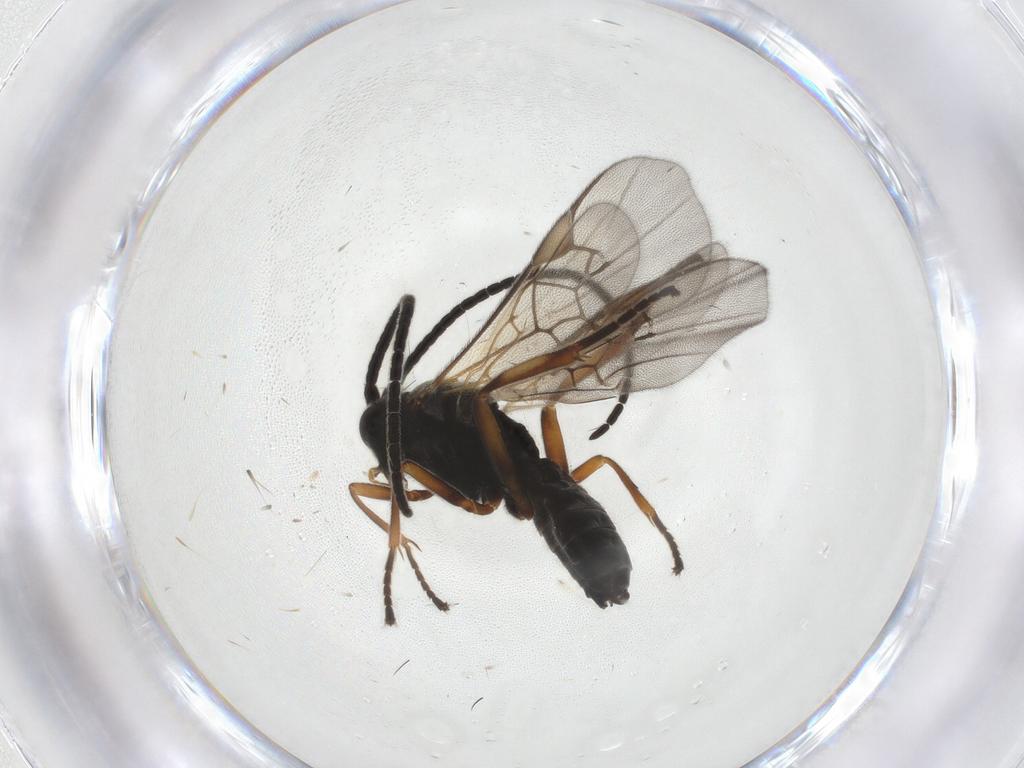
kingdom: Animalia
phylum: Arthropoda
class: Insecta
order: Hymenoptera
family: Braconidae
